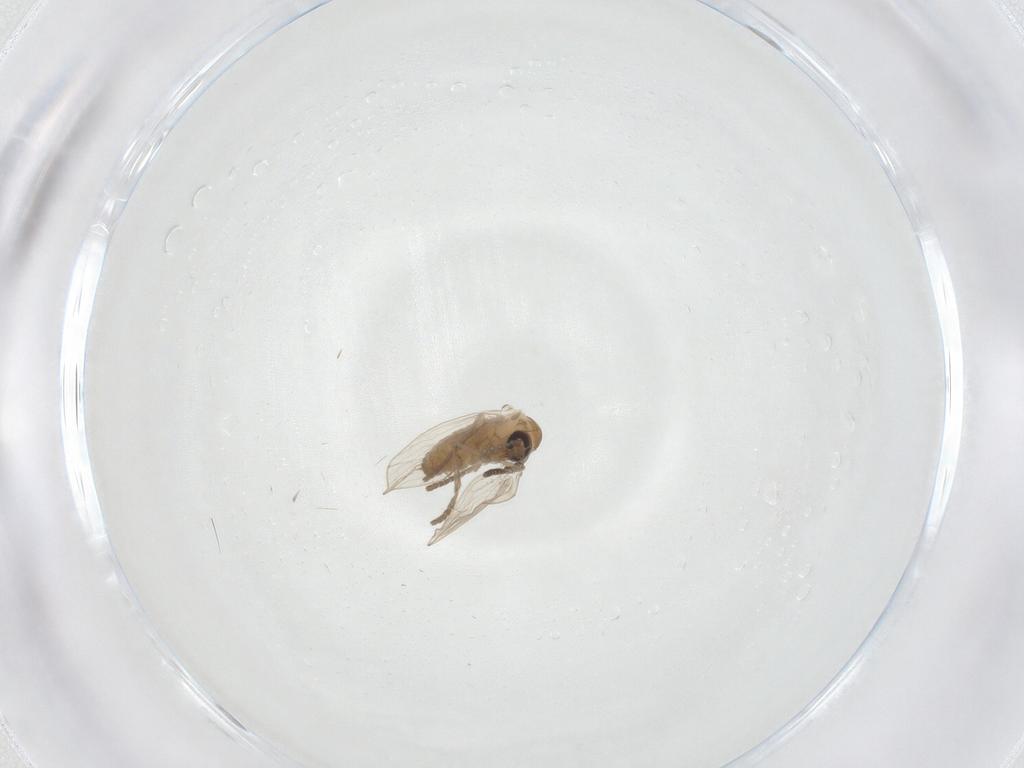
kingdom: Animalia
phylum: Arthropoda
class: Insecta
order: Diptera
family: Psychodidae
